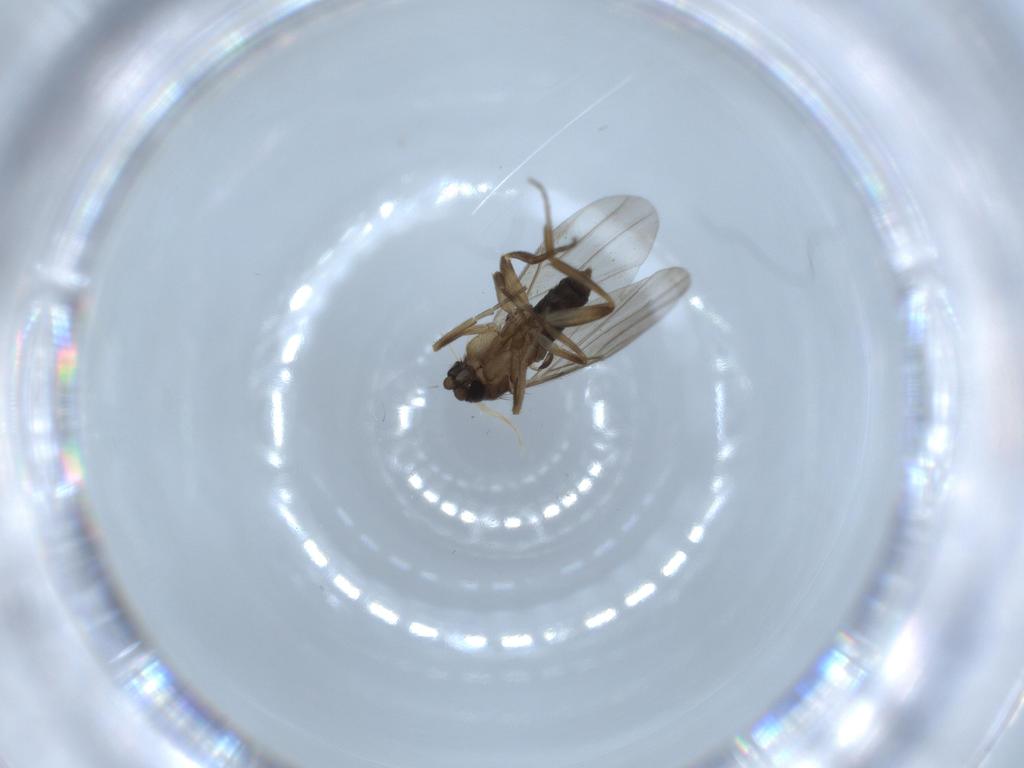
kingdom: Animalia
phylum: Arthropoda
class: Insecta
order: Diptera
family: Phoridae
